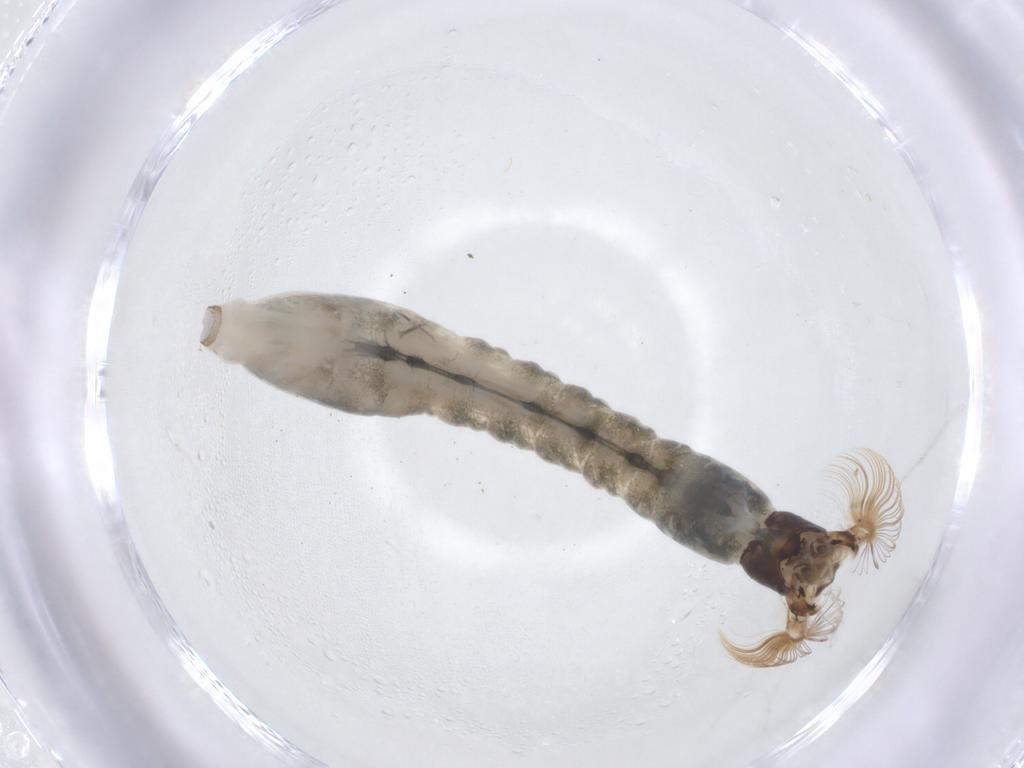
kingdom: Animalia
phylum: Arthropoda
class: Insecta
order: Diptera
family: Simuliidae
